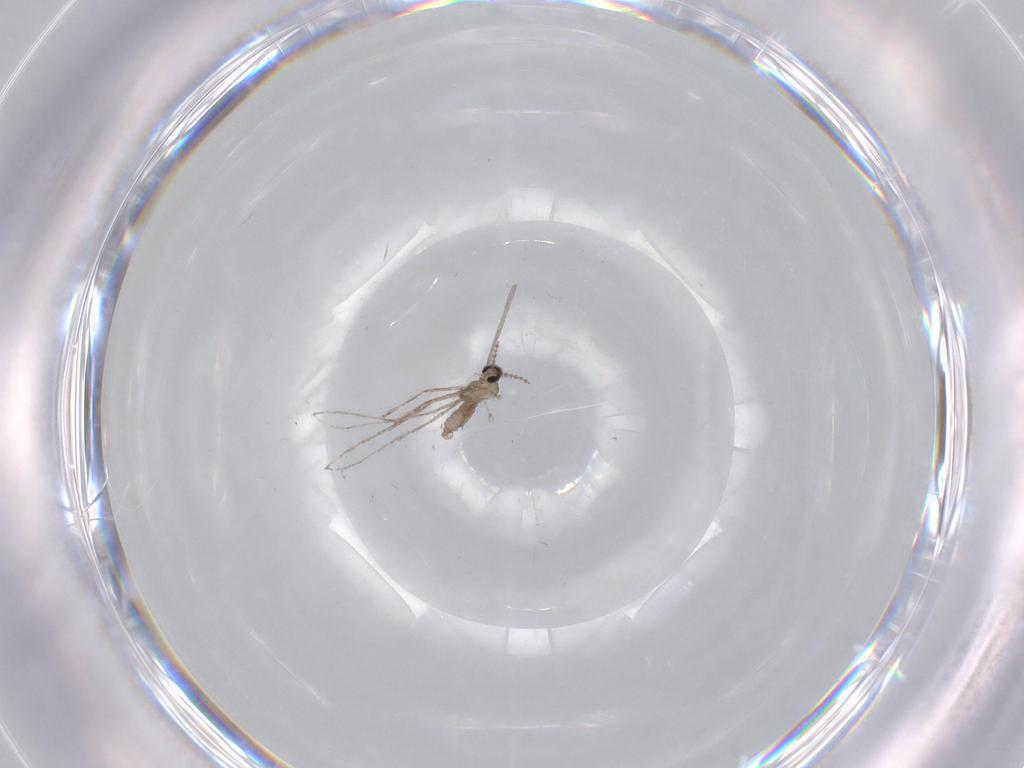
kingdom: Animalia
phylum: Arthropoda
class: Insecta
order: Diptera
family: Cecidomyiidae
